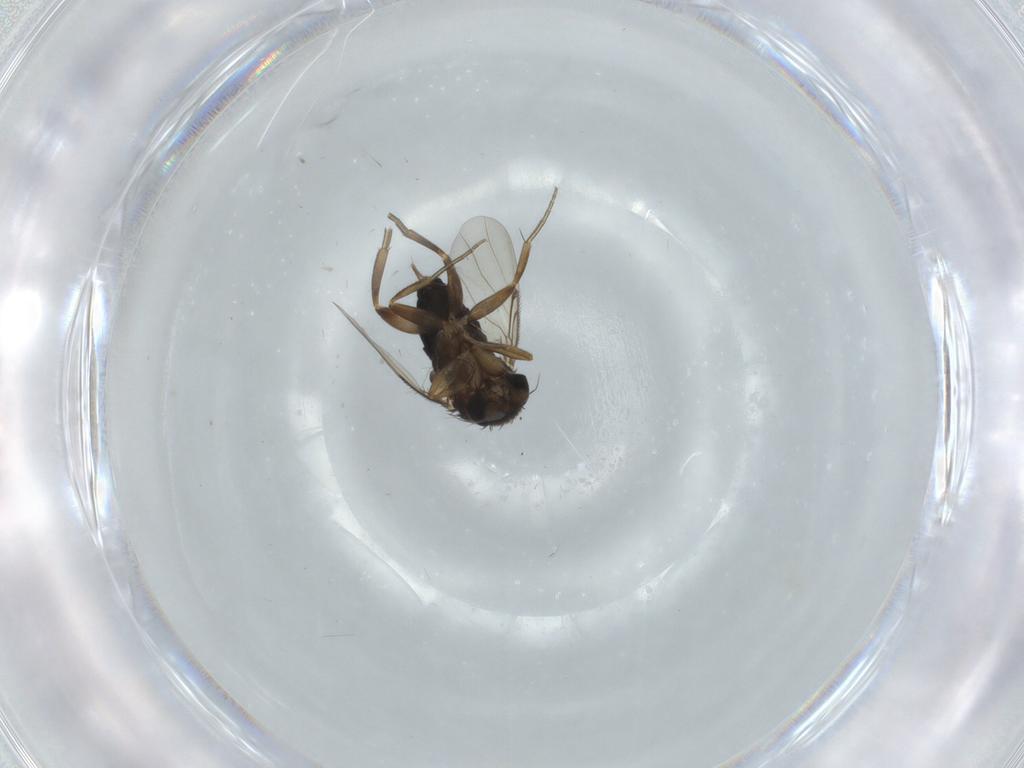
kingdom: Animalia
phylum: Arthropoda
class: Insecta
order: Diptera
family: Cecidomyiidae
